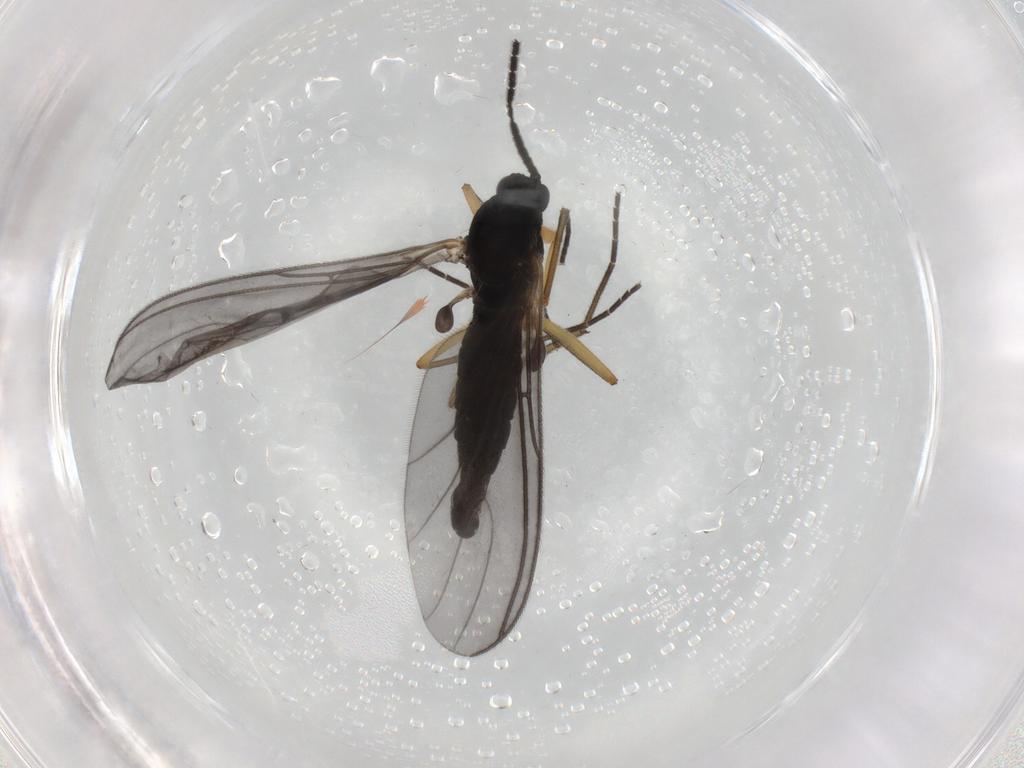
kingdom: Animalia
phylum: Arthropoda
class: Insecta
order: Diptera
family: Sciaridae
